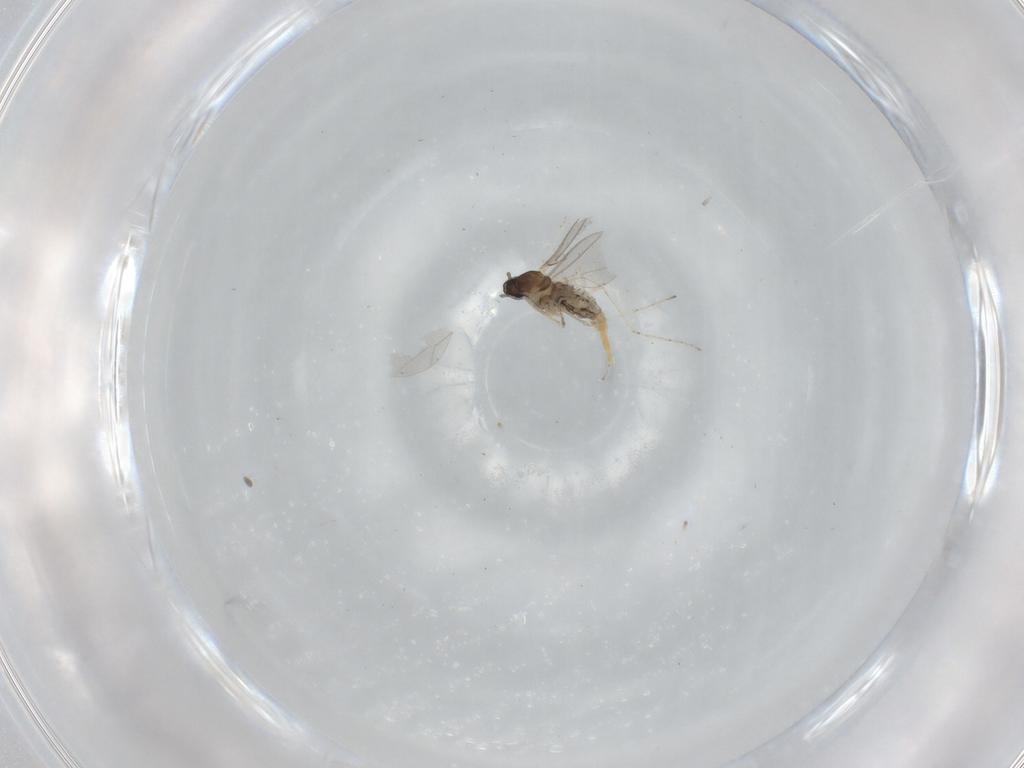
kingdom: Animalia
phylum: Arthropoda
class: Insecta
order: Diptera
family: Cecidomyiidae
